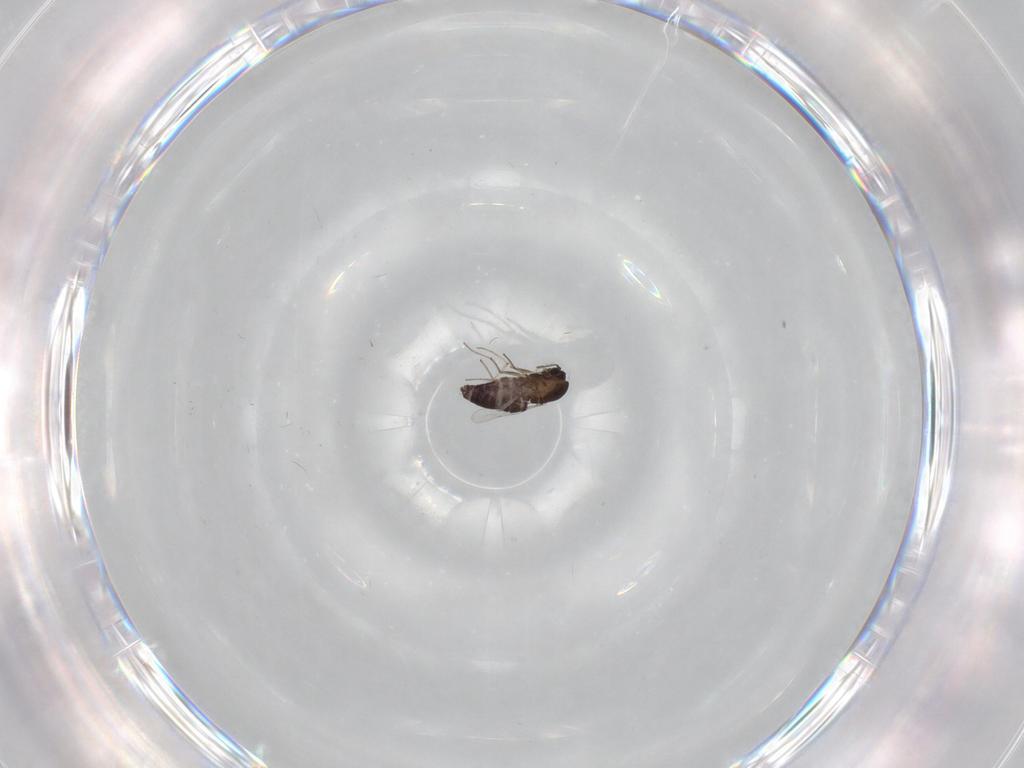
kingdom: Animalia
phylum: Arthropoda
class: Insecta
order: Diptera
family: Chironomidae
